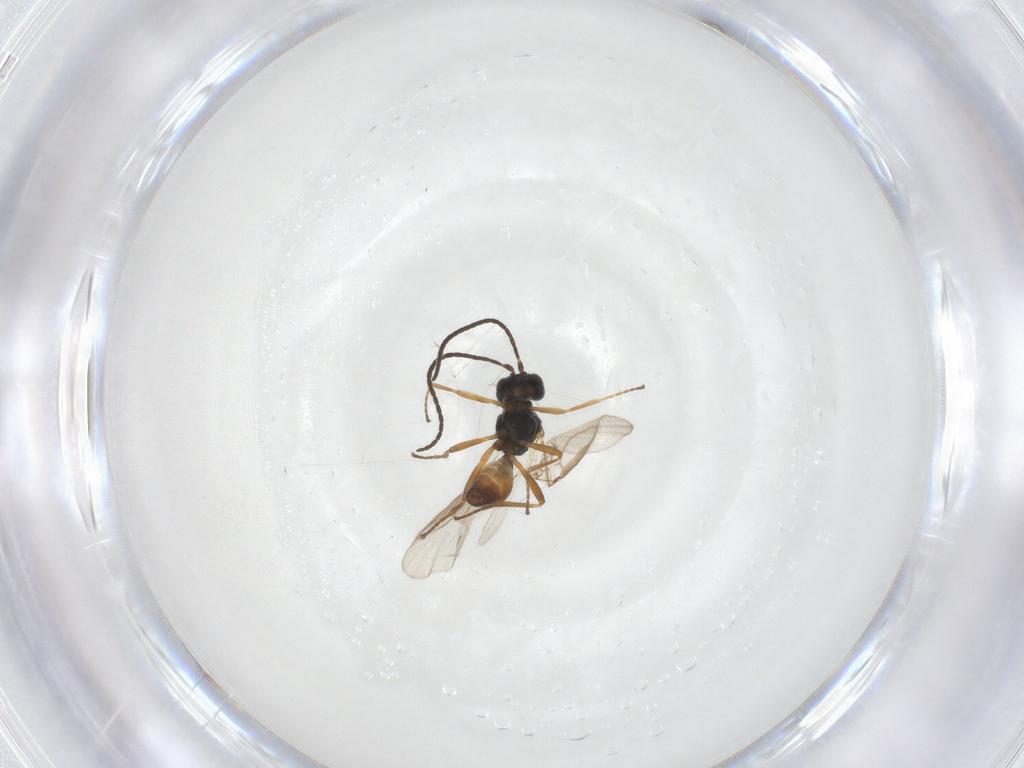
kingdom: Animalia
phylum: Arthropoda
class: Insecta
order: Hymenoptera
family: Braconidae
